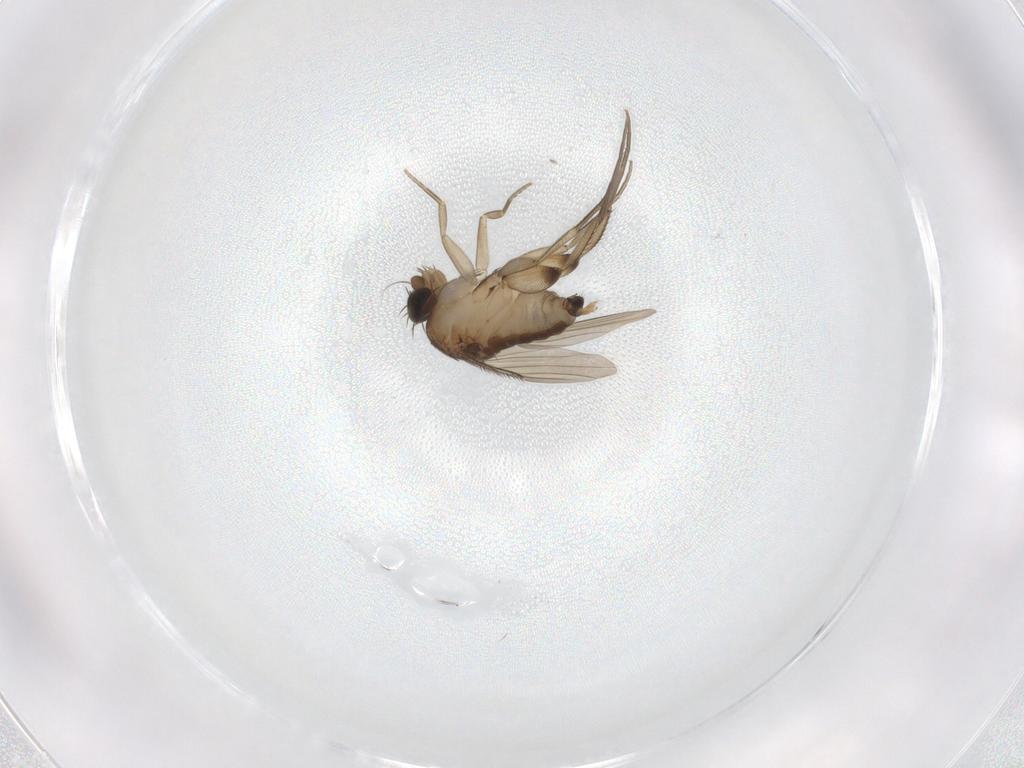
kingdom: Animalia
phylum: Arthropoda
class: Insecta
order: Diptera
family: Phoridae
